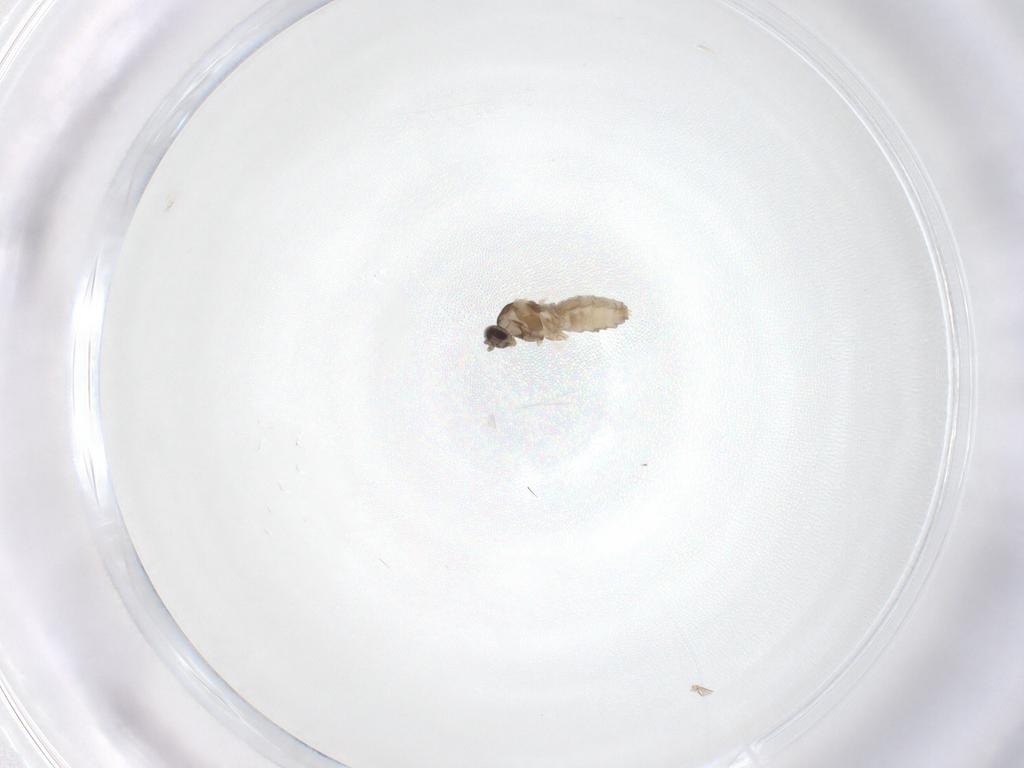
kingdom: Animalia
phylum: Arthropoda
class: Insecta
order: Diptera
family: Cecidomyiidae
